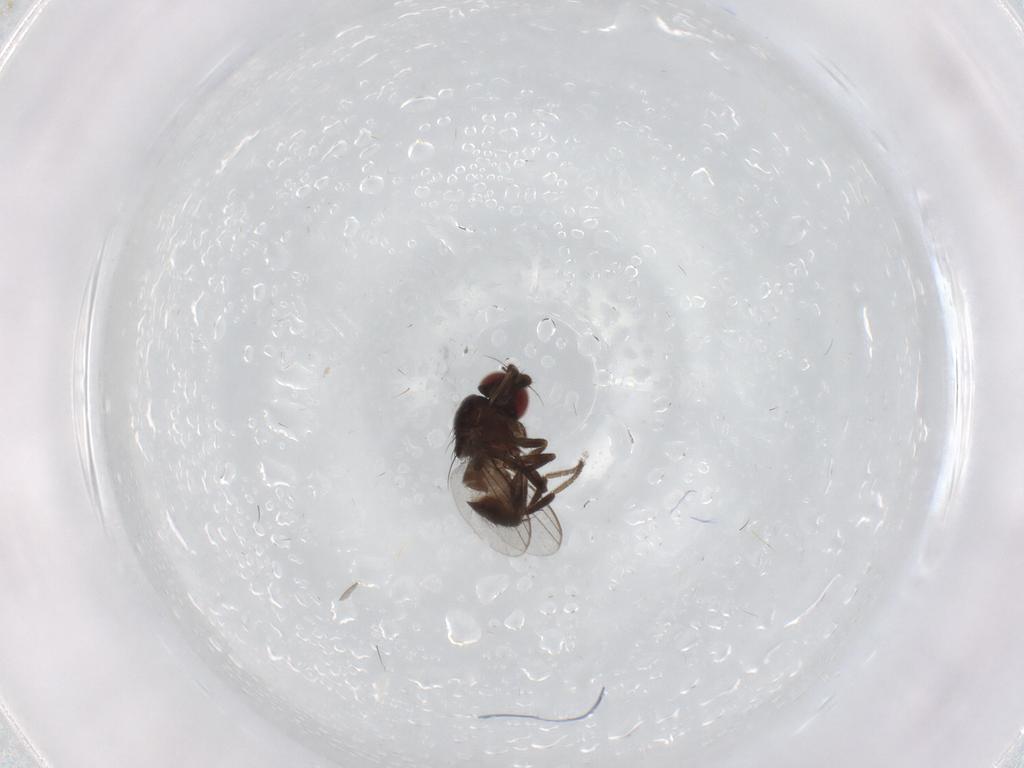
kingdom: Animalia
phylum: Arthropoda
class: Insecta
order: Diptera
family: Milichiidae
